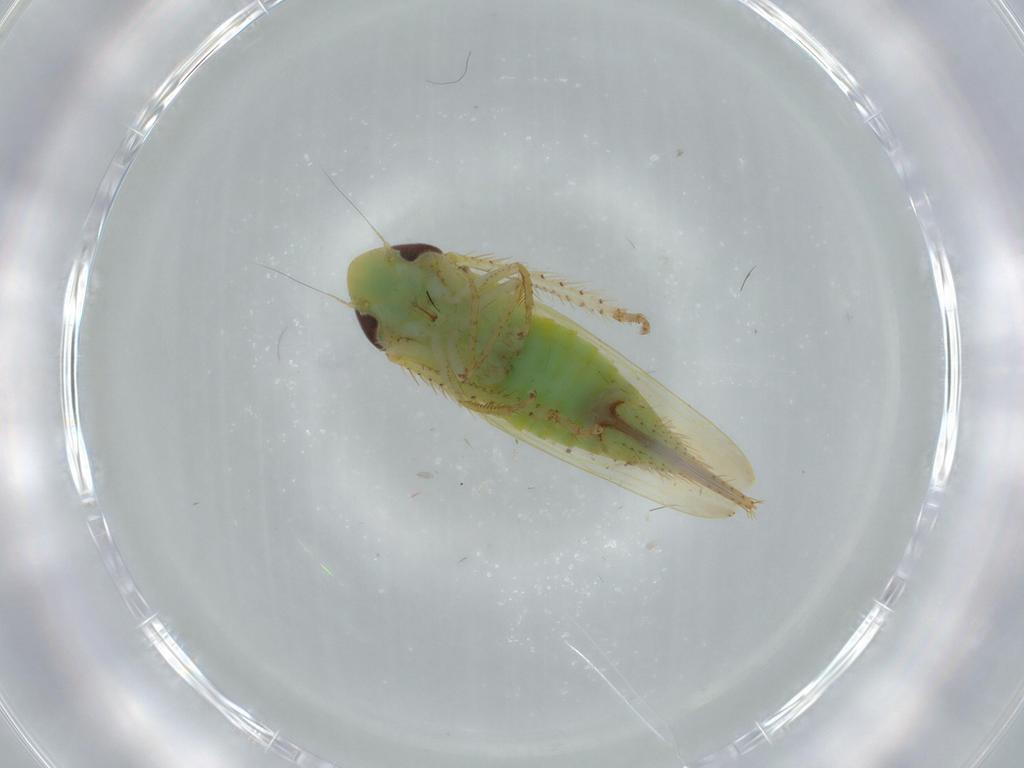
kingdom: Animalia
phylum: Arthropoda
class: Insecta
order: Hemiptera
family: Cicadellidae
